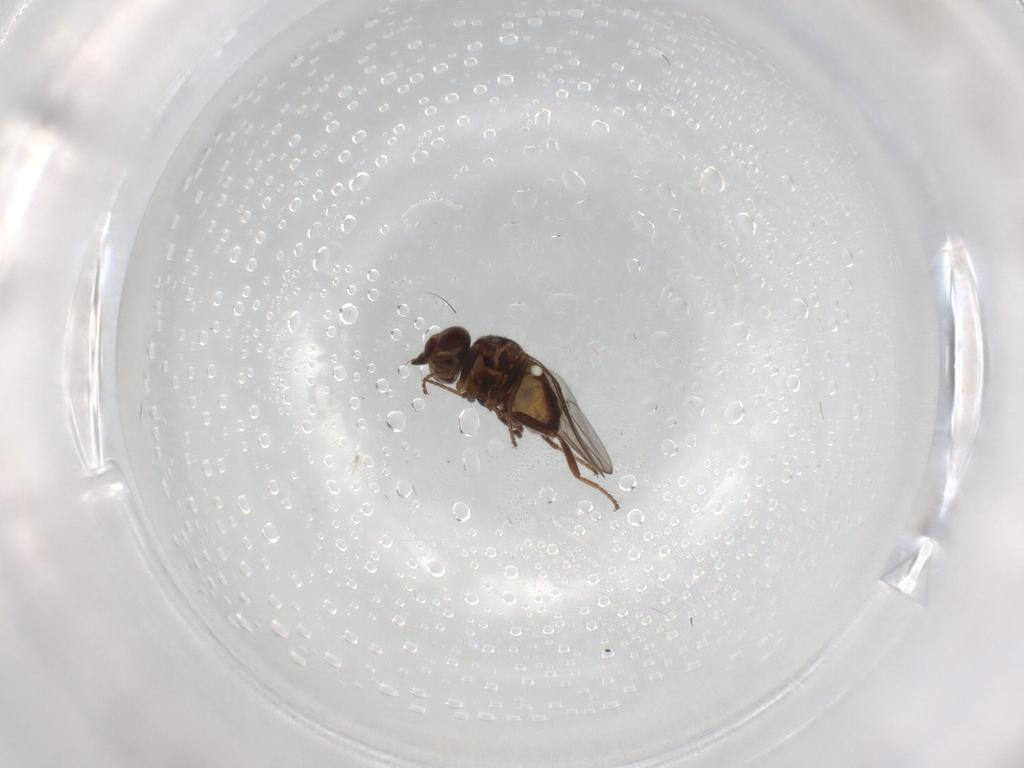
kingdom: Animalia
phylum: Arthropoda
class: Insecta
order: Diptera
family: Chloropidae
